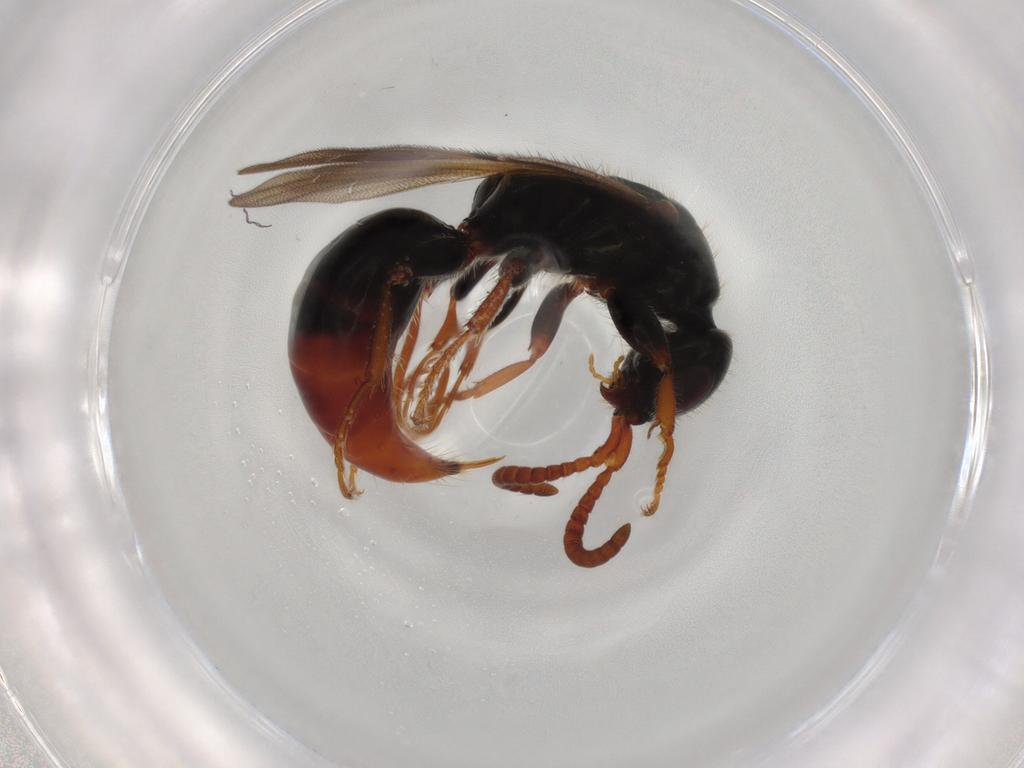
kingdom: Animalia
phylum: Arthropoda
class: Insecta
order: Hymenoptera
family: Bethylidae
